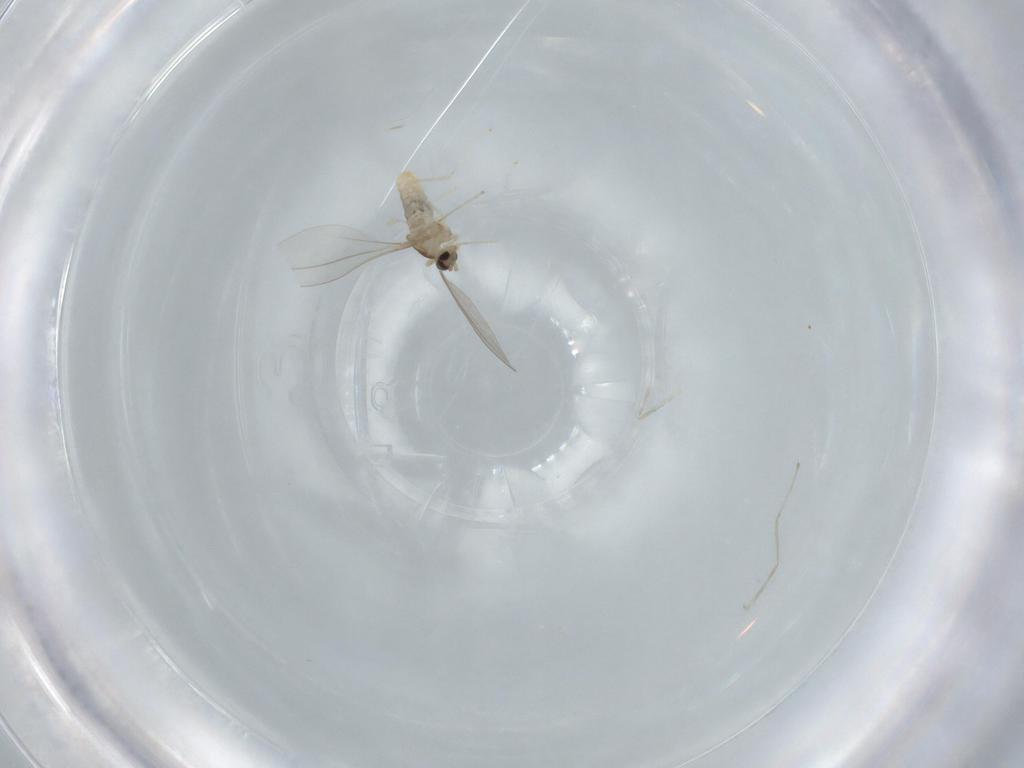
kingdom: Animalia
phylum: Arthropoda
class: Insecta
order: Diptera
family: Cecidomyiidae
